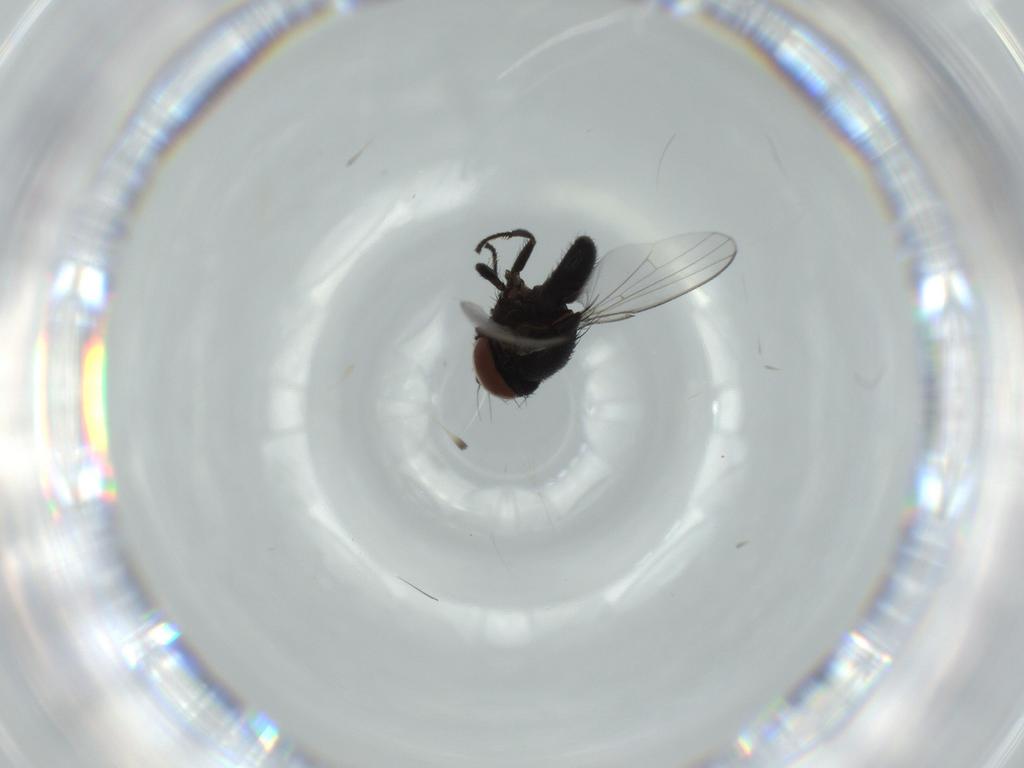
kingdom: Animalia
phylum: Arthropoda
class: Insecta
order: Diptera
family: Milichiidae
